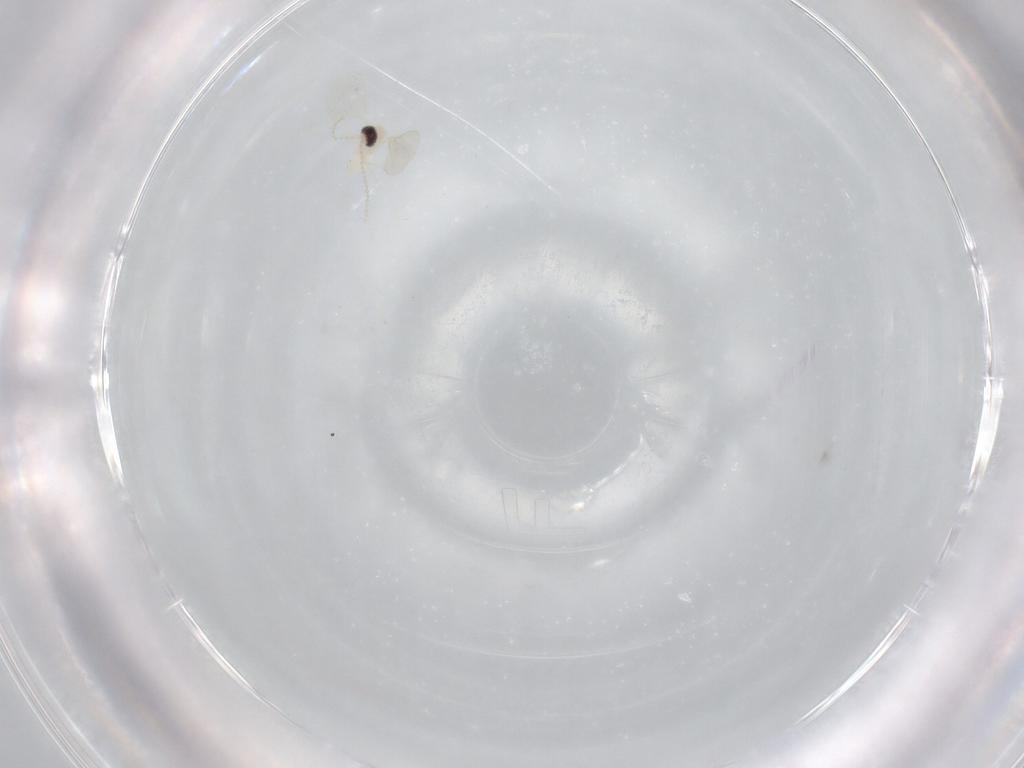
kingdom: Animalia
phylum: Arthropoda
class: Insecta
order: Diptera
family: Cecidomyiidae
